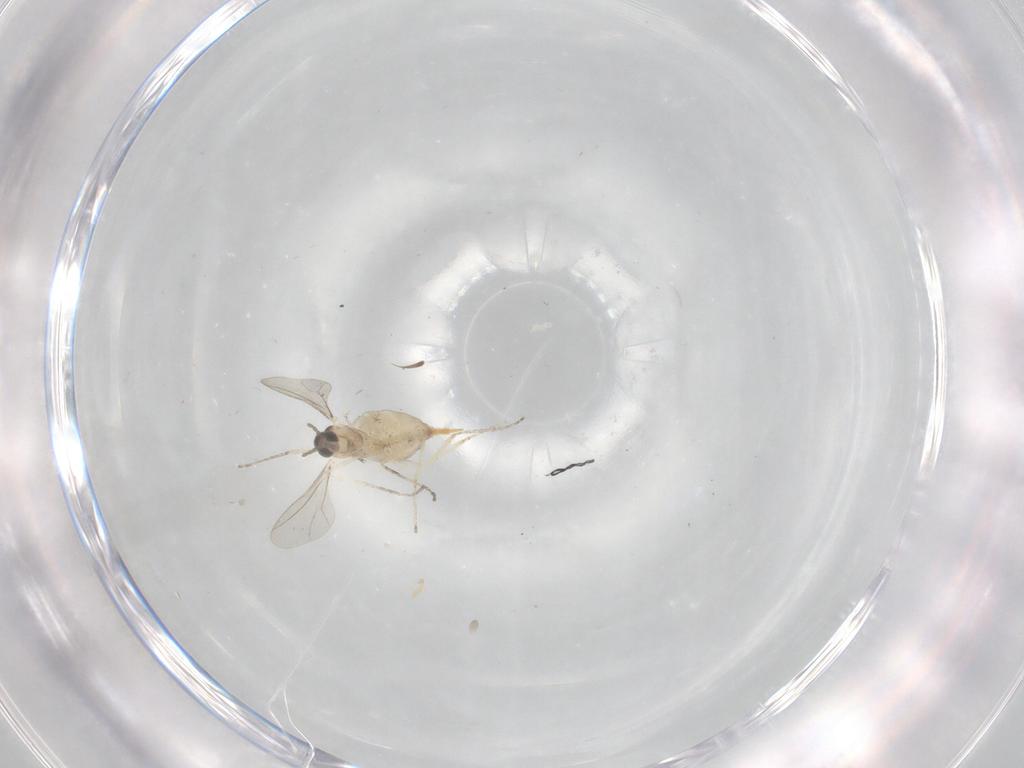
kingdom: Animalia
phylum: Arthropoda
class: Insecta
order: Diptera
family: Cecidomyiidae
